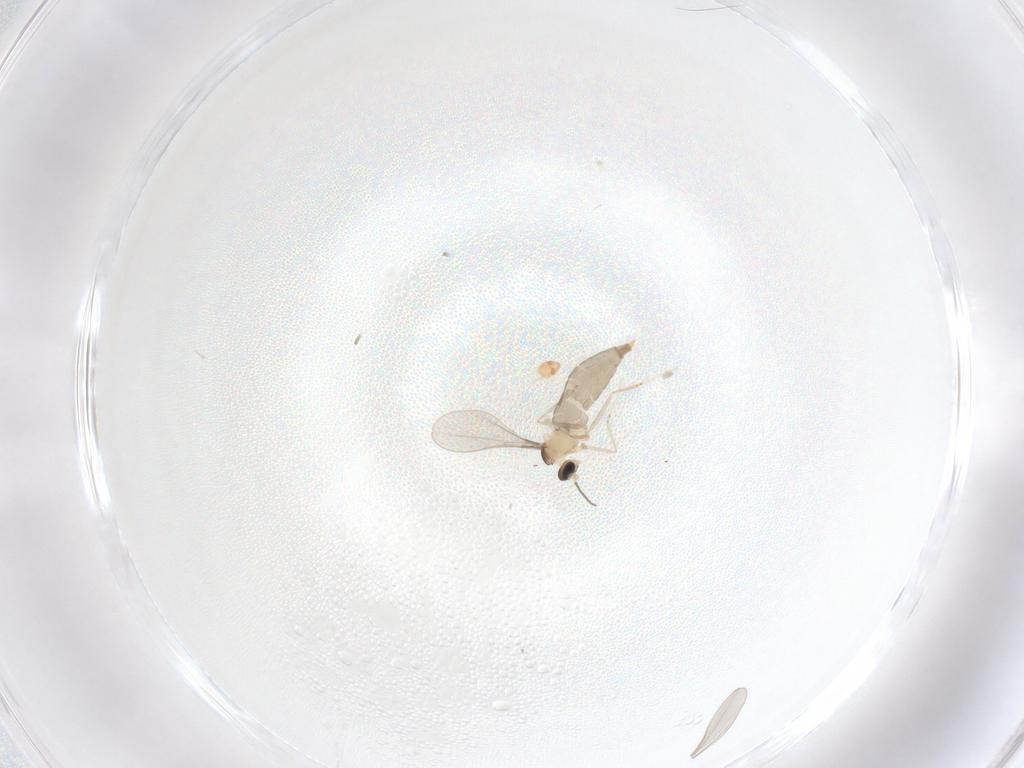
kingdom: Animalia
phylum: Arthropoda
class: Insecta
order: Diptera
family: Cecidomyiidae
